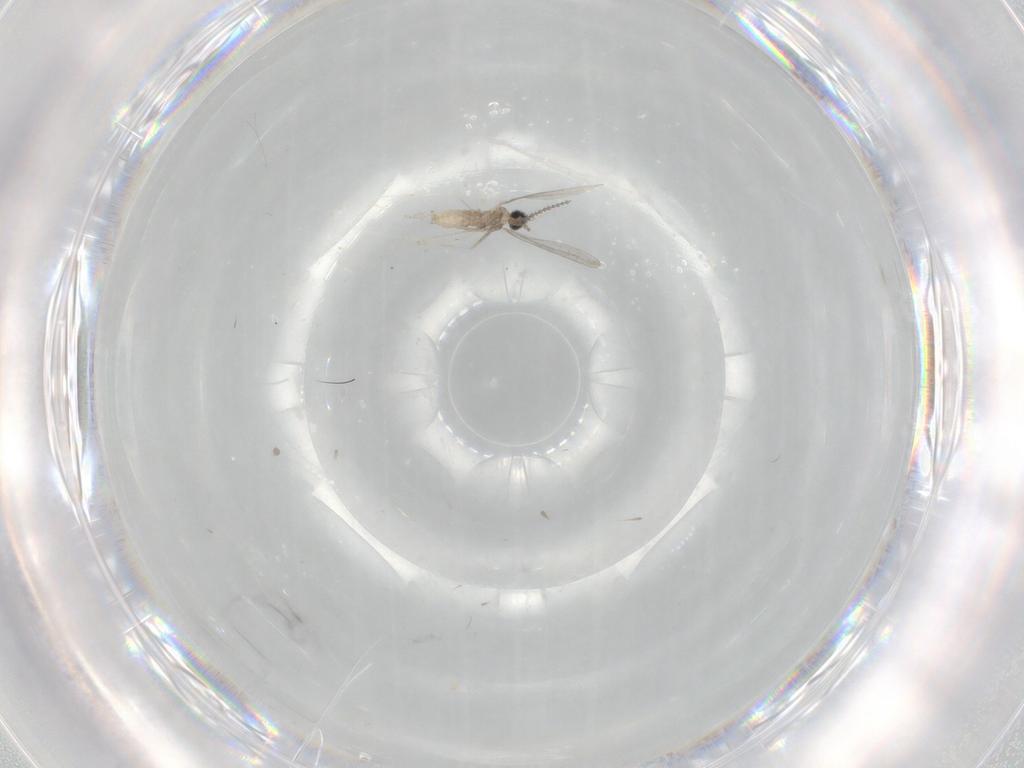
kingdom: Animalia
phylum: Arthropoda
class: Insecta
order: Diptera
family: Cecidomyiidae
